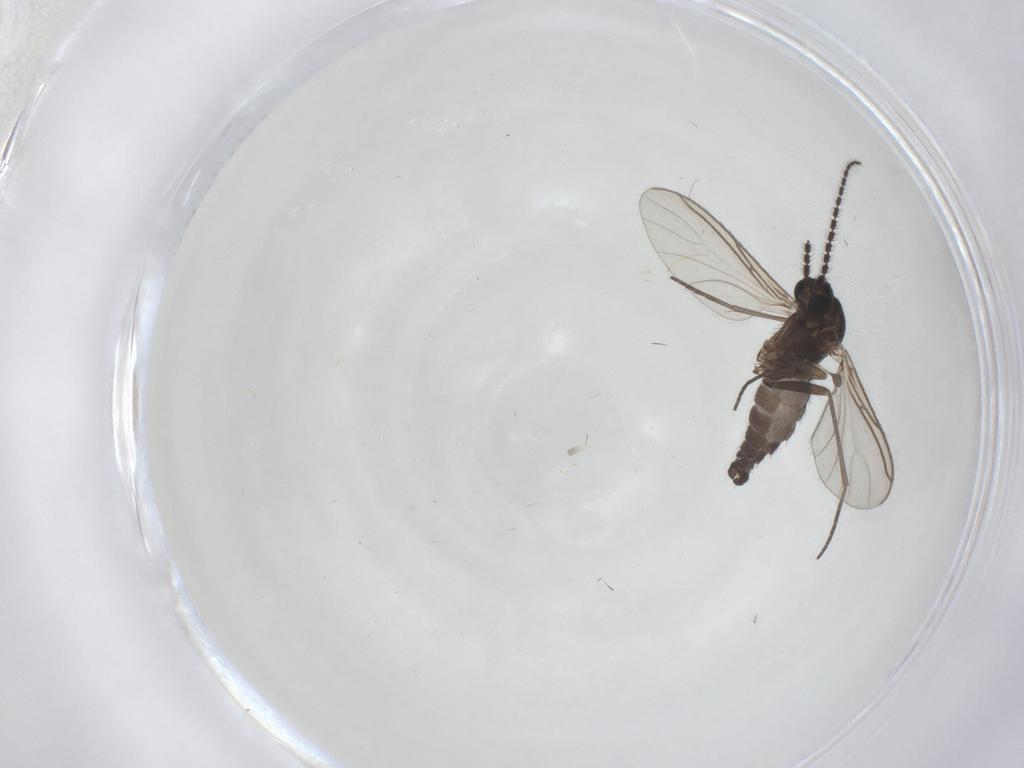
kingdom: Animalia
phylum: Arthropoda
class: Insecta
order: Diptera
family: Sciaridae
